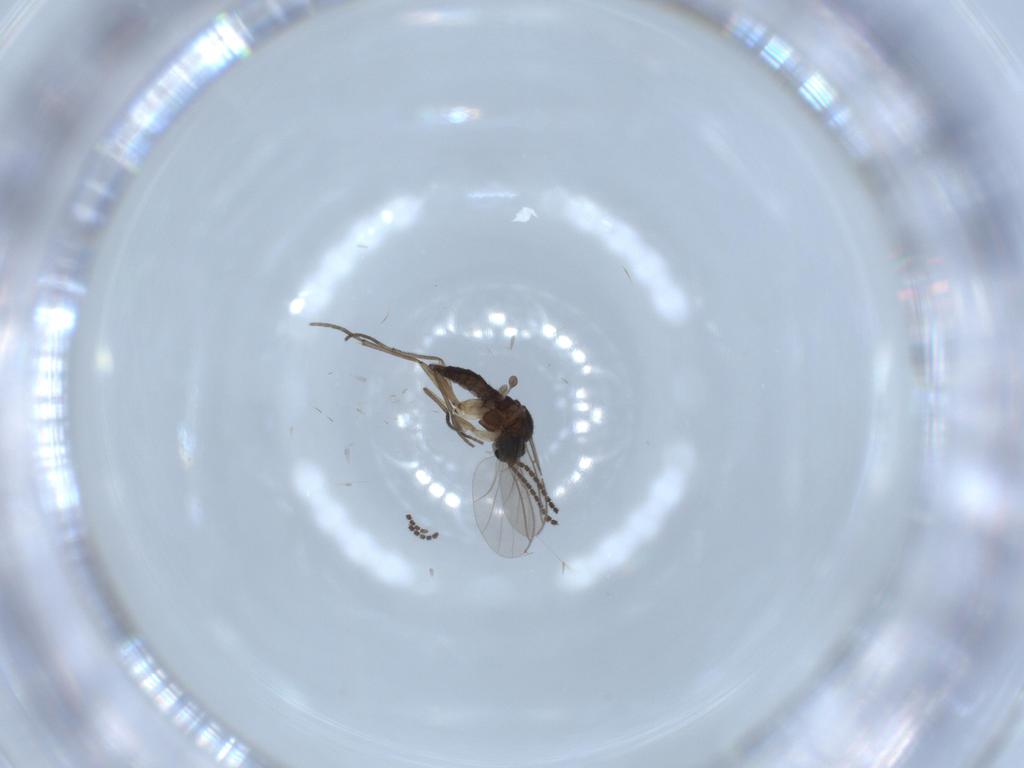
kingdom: Animalia
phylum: Arthropoda
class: Insecta
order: Diptera
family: Sciaridae
